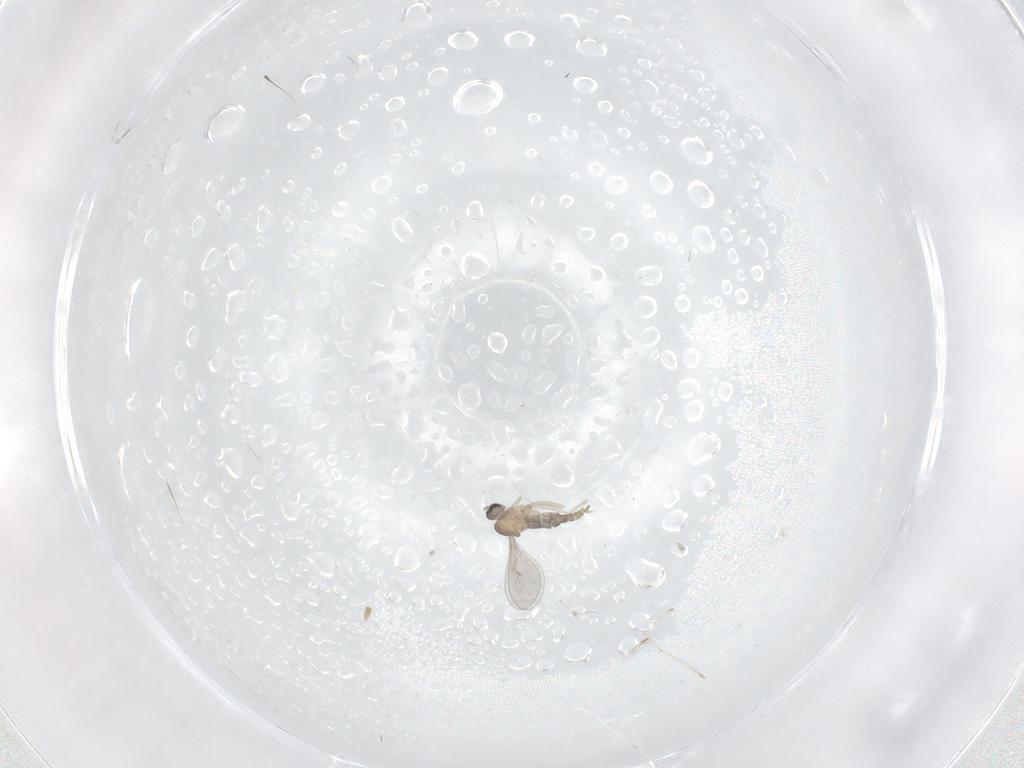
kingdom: Animalia
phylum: Arthropoda
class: Insecta
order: Diptera
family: Cecidomyiidae
